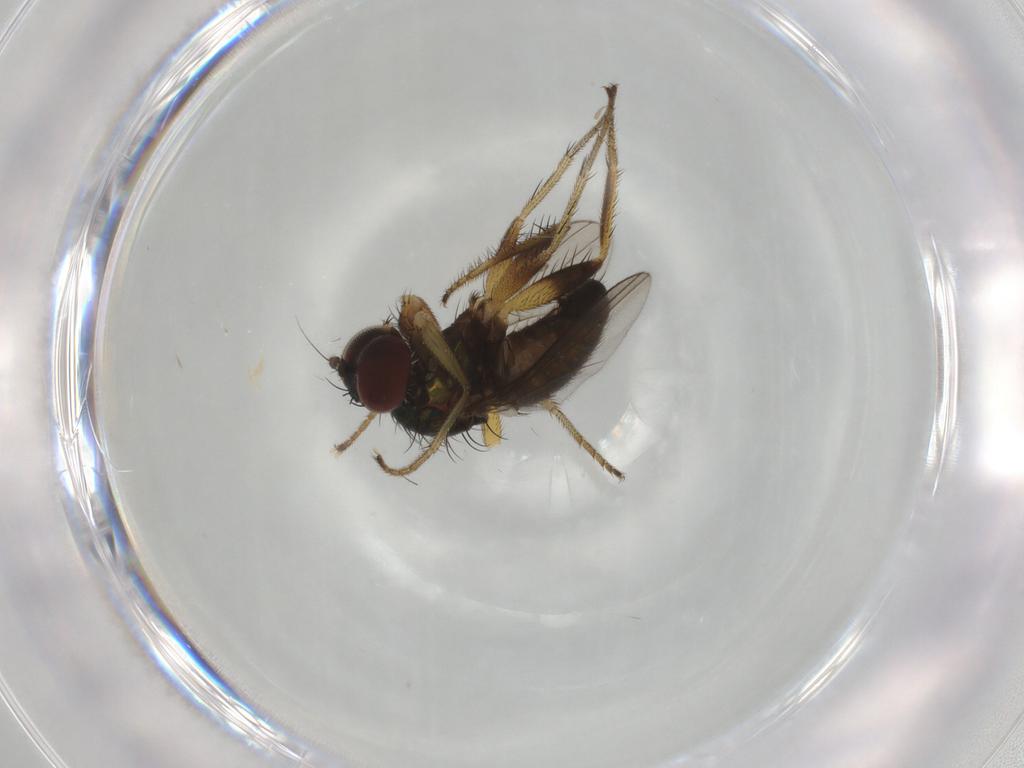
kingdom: Animalia
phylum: Arthropoda
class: Insecta
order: Diptera
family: Dolichopodidae
